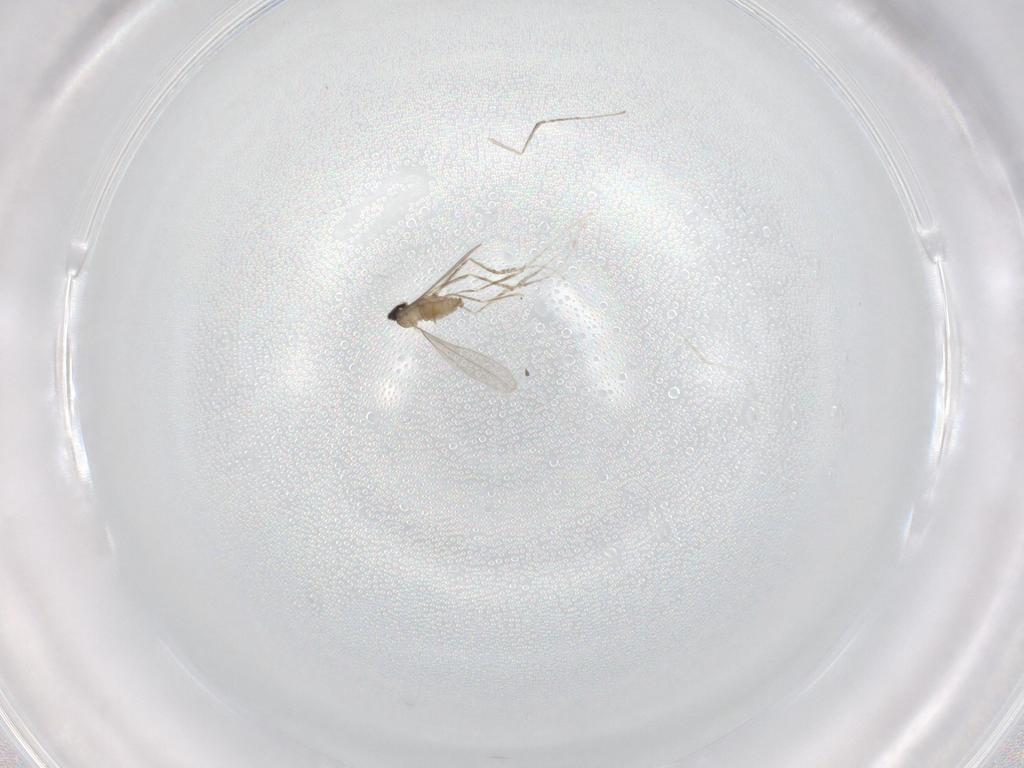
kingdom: Animalia
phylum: Arthropoda
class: Insecta
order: Diptera
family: Cecidomyiidae
